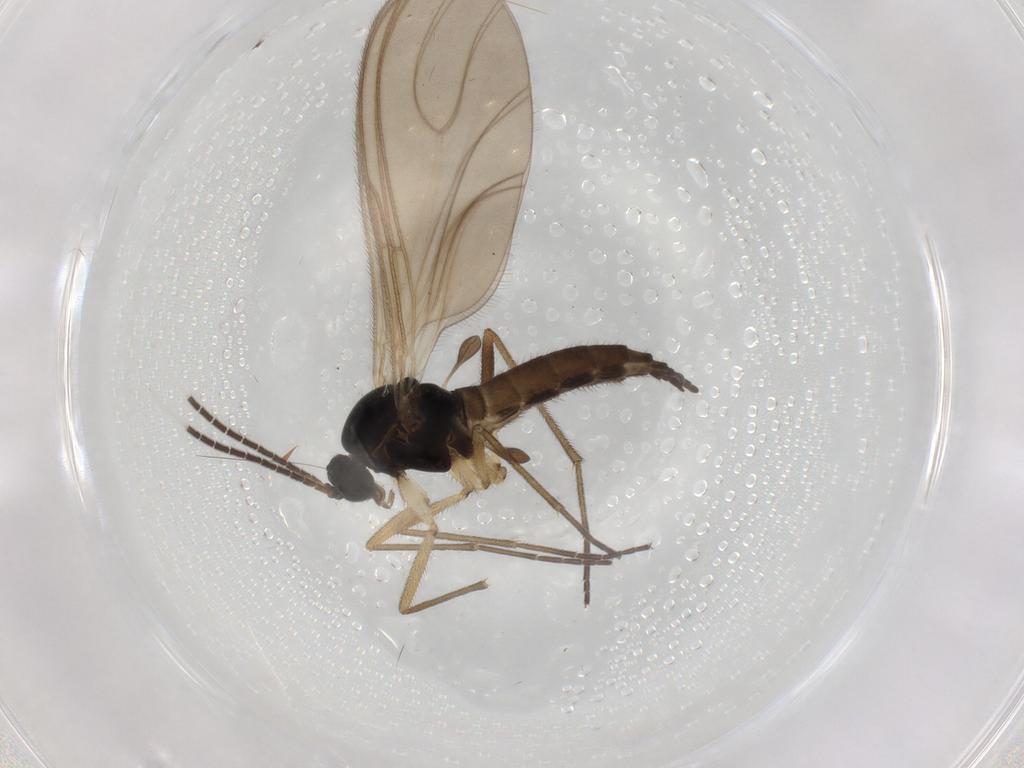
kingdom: Animalia
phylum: Arthropoda
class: Insecta
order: Diptera
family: Sciaridae
